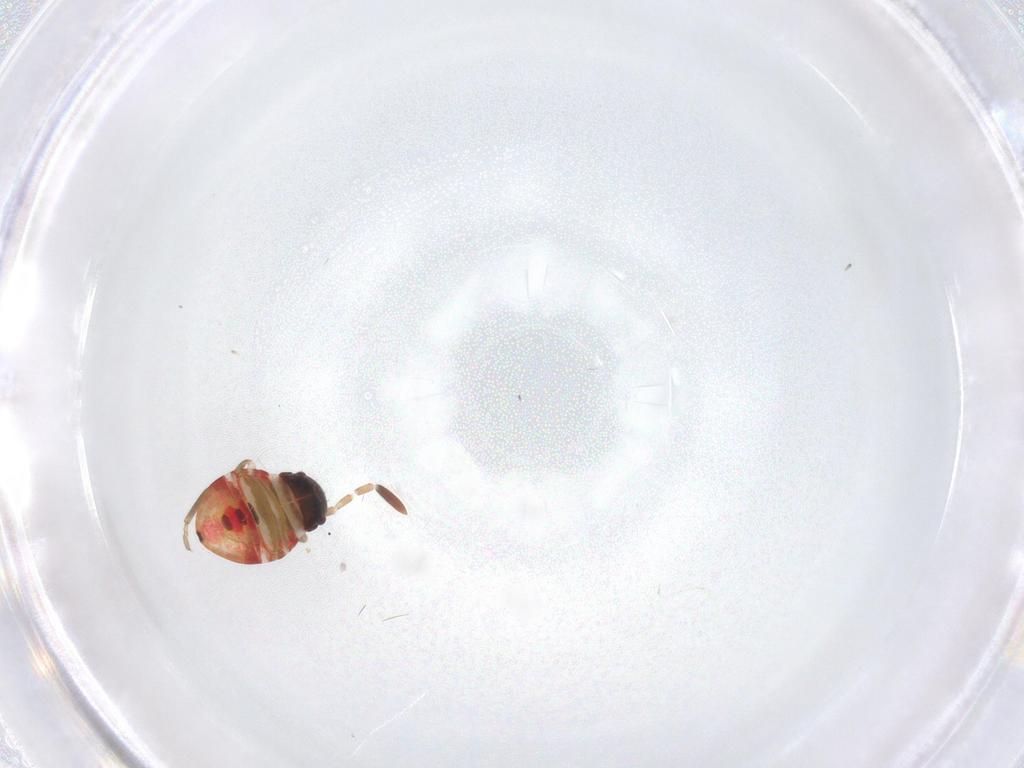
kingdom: Animalia
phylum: Arthropoda
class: Insecta
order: Hemiptera
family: Rhyparochromidae
